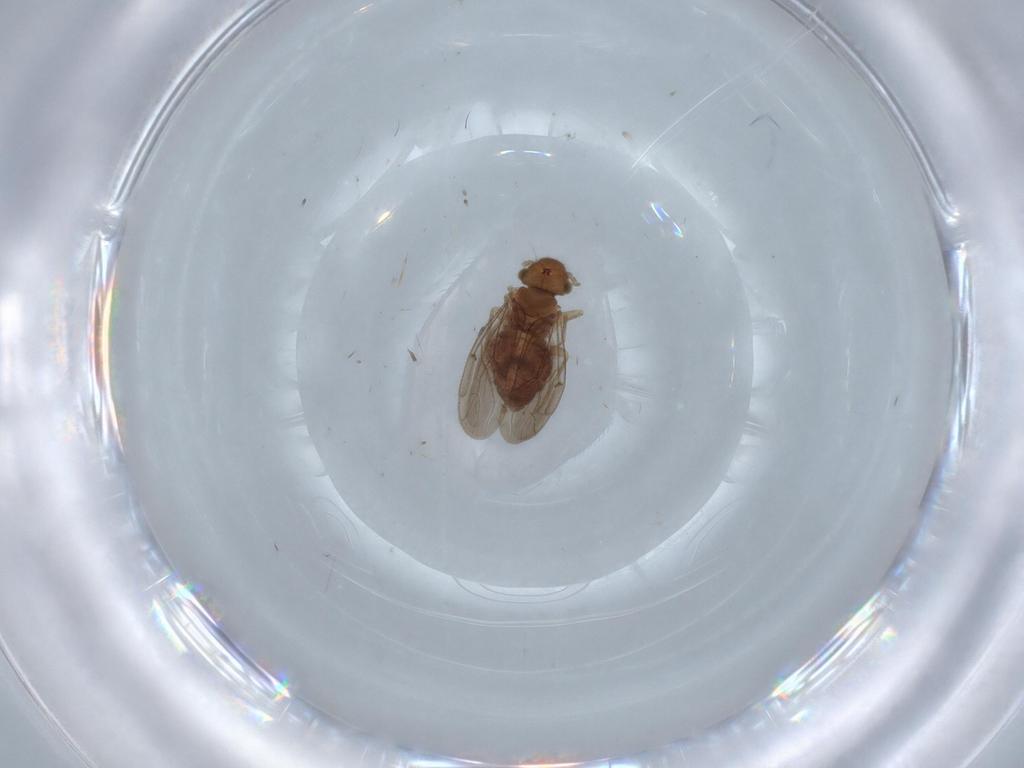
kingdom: Animalia
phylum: Arthropoda
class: Insecta
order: Psocodea
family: Ectopsocidae
